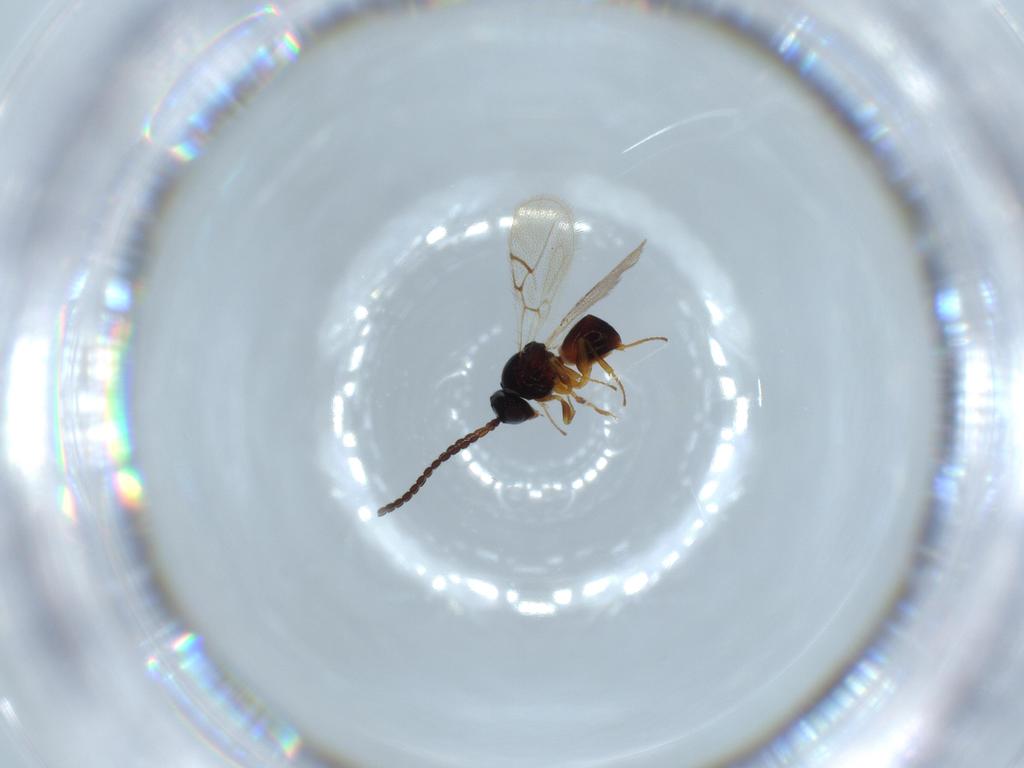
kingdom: Animalia
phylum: Arthropoda
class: Insecta
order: Hymenoptera
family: Figitidae
